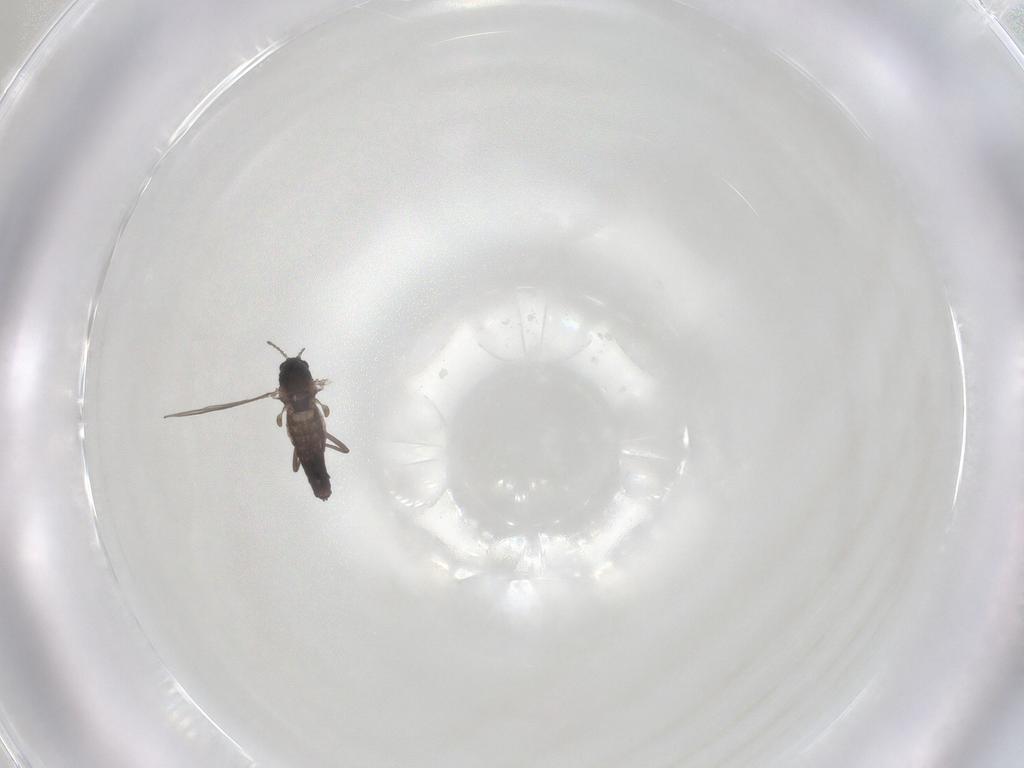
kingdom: Animalia
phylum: Arthropoda
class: Insecta
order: Diptera
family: Chironomidae
